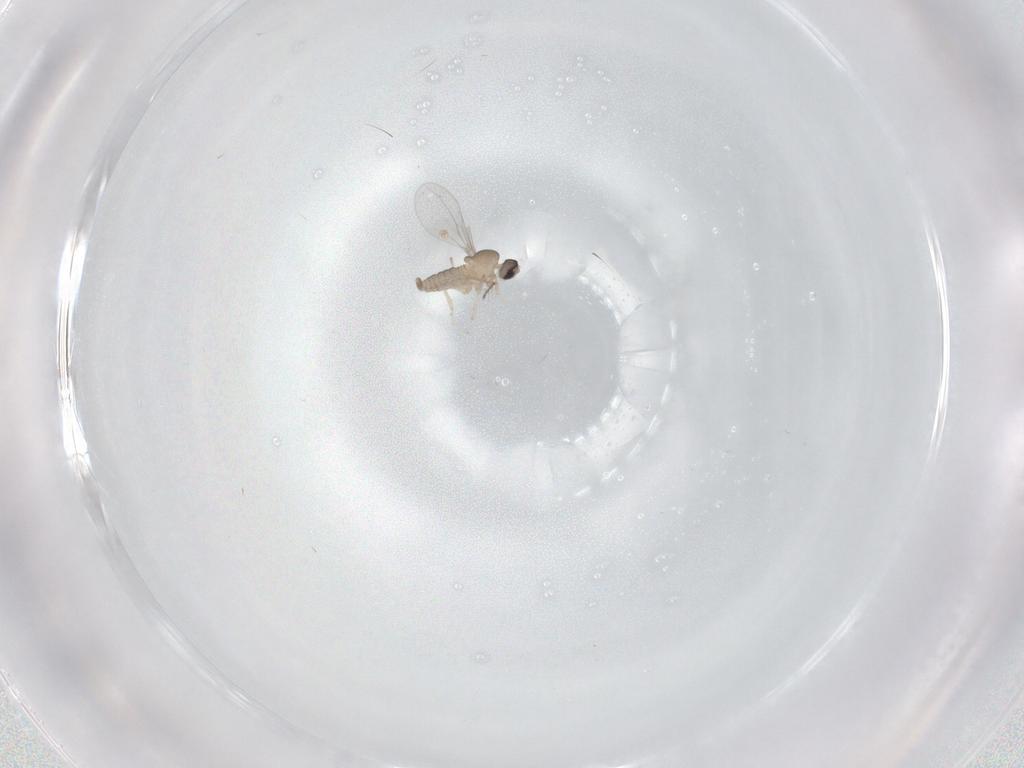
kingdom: Animalia
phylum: Arthropoda
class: Insecta
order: Diptera
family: Cecidomyiidae
